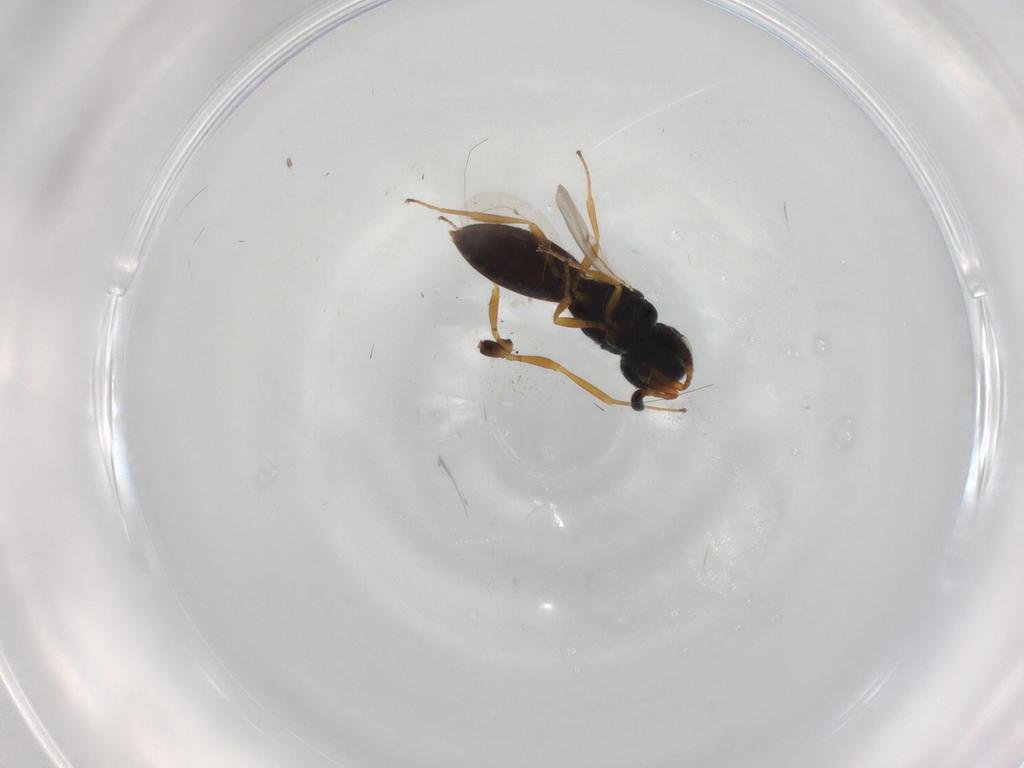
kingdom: Animalia
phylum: Arthropoda
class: Insecta
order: Hymenoptera
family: Scelionidae
